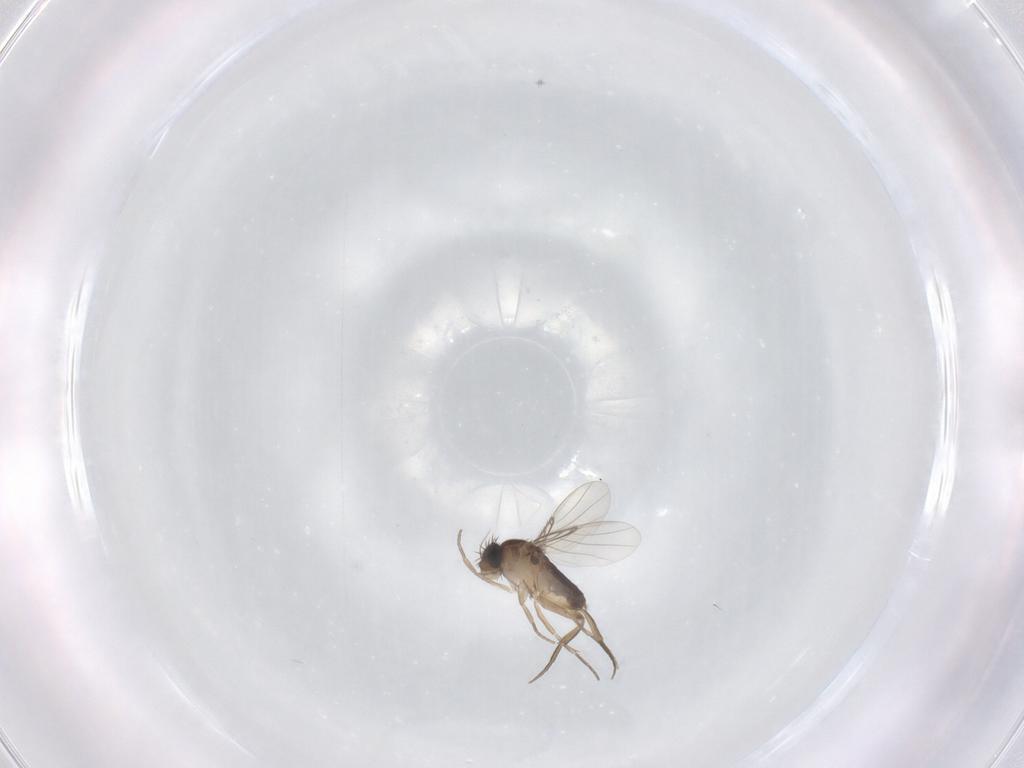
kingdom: Animalia
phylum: Arthropoda
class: Insecta
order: Diptera
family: Phoridae
